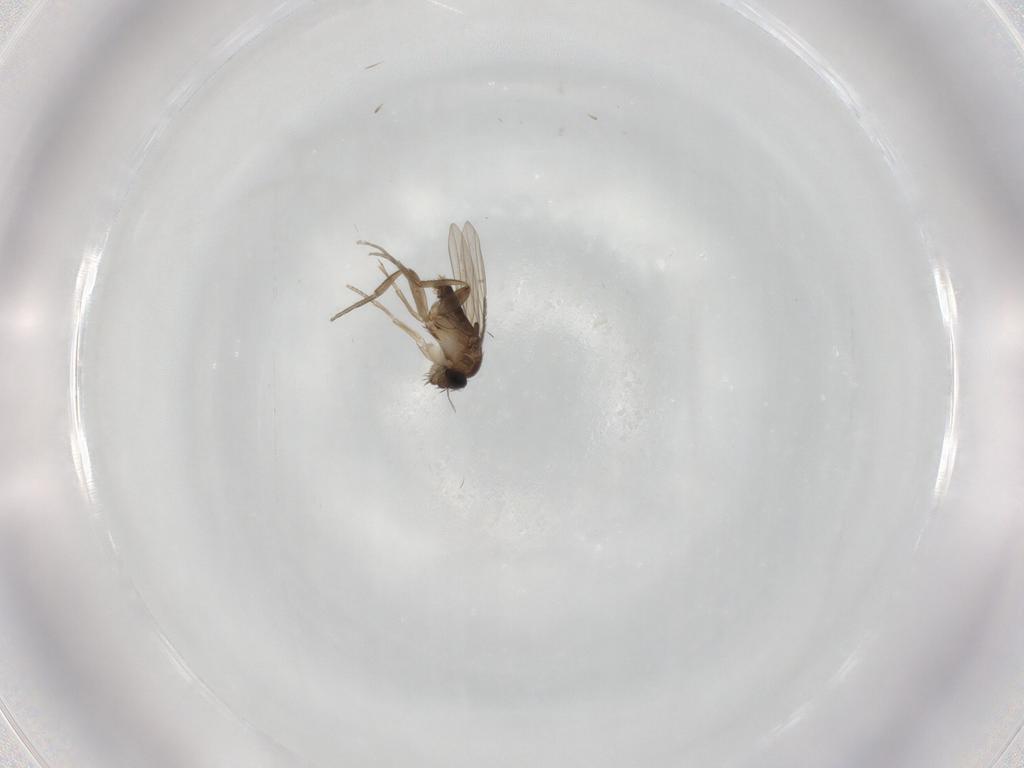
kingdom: Animalia
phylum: Arthropoda
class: Insecta
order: Diptera
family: Phoridae
